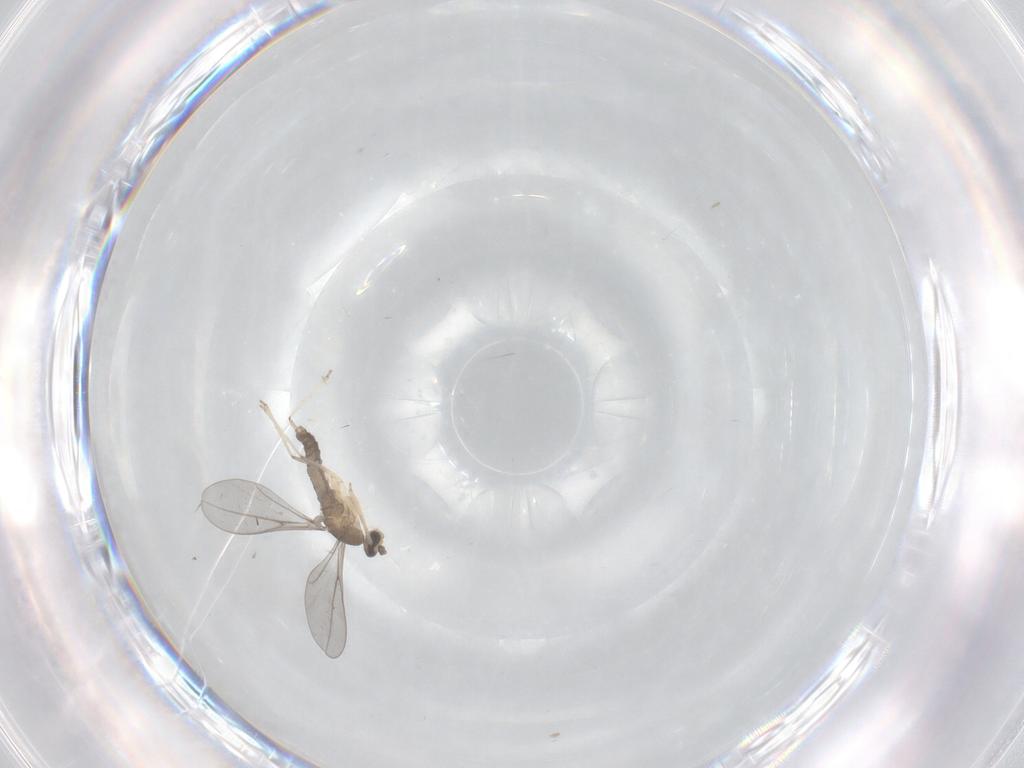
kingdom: Animalia
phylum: Arthropoda
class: Insecta
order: Diptera
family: Cecidomyiidae
